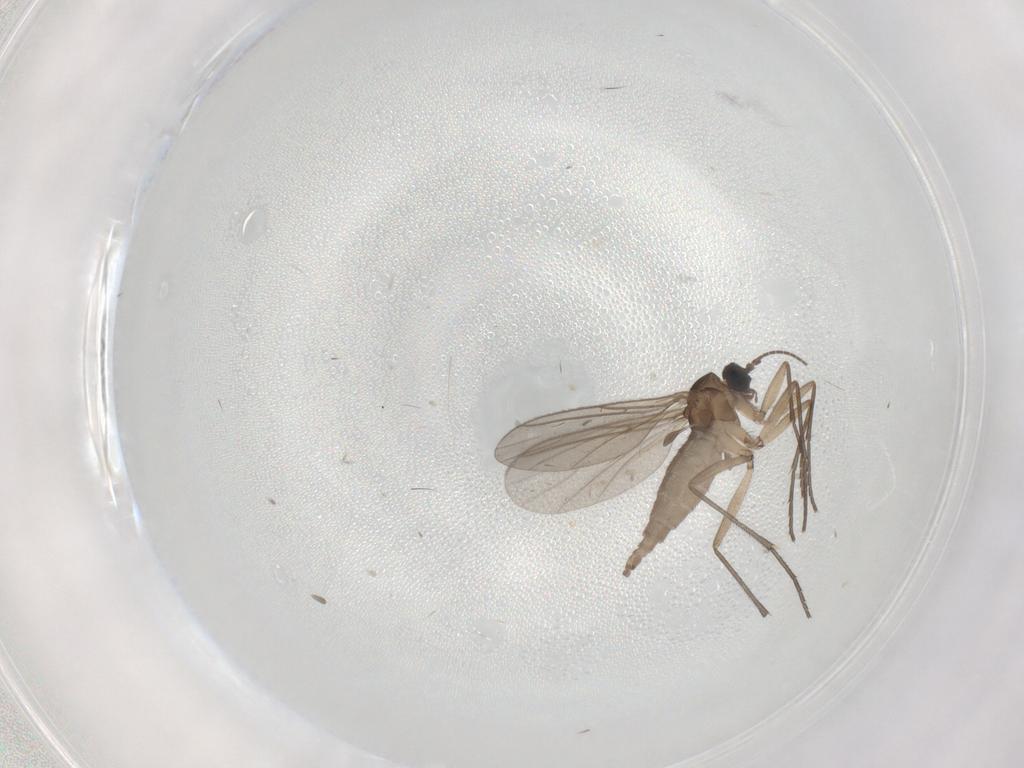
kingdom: Animalia
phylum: Arthropoda
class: Insecta
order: Diptera
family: Sciaridae
